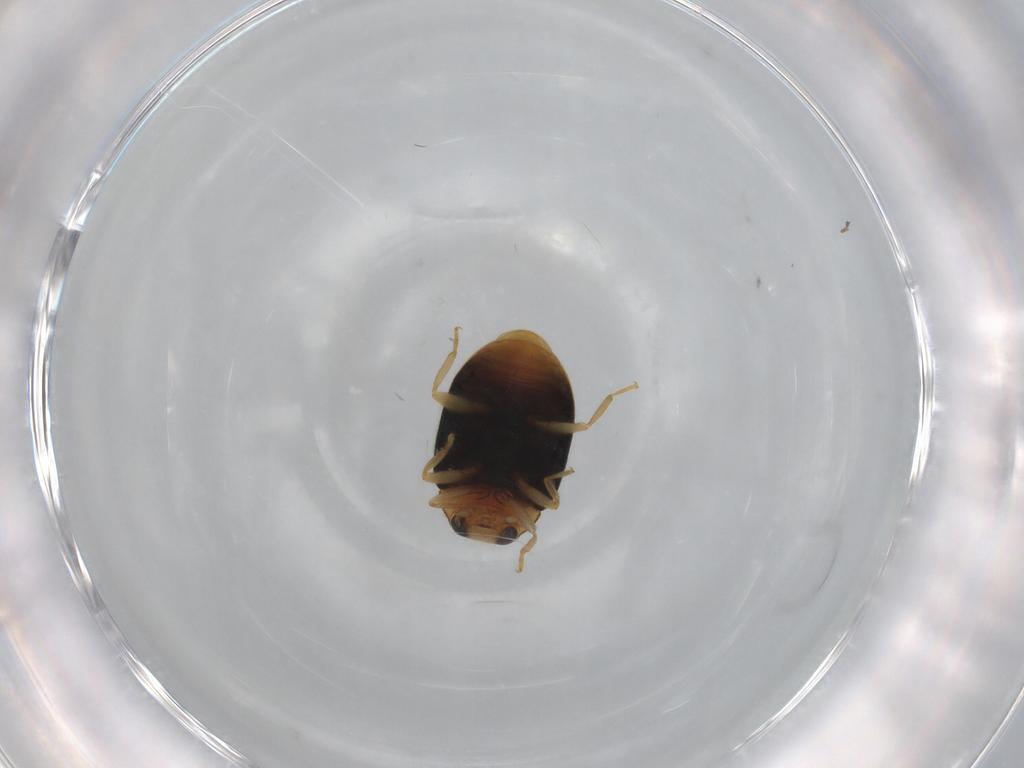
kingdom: Animalia
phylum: Arthropoda
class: Insecta
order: Coleoptera
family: Coccinellidae
